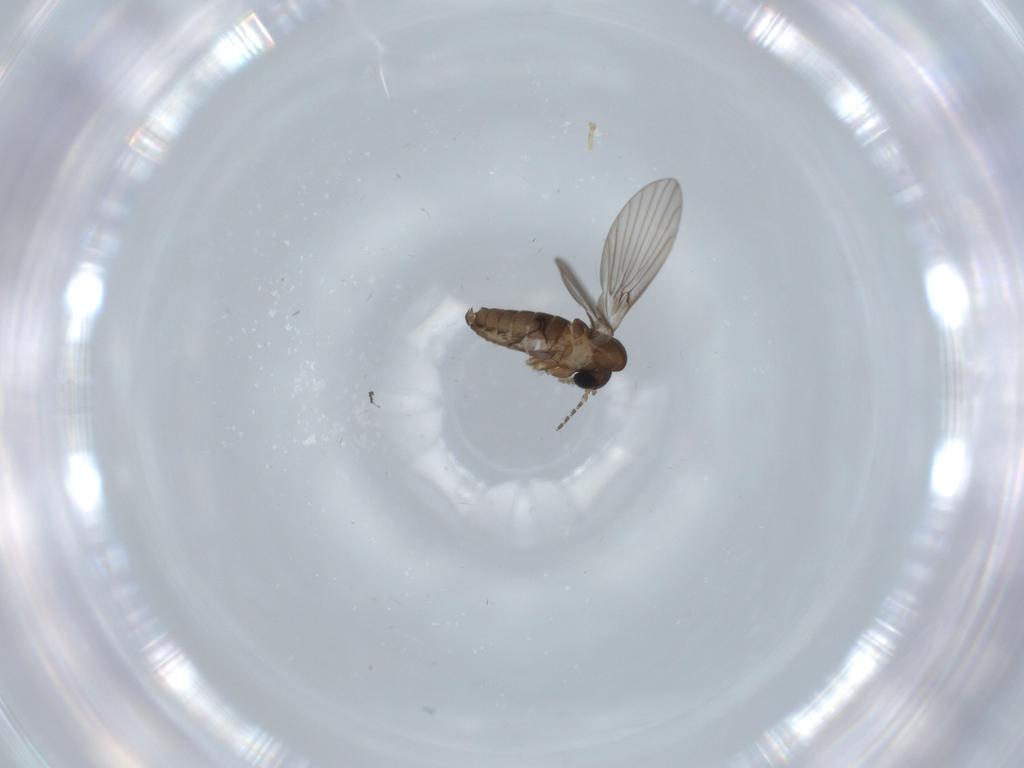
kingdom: Animalia
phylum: Arthropoda
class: Insecta
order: Diptera
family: Psychodidae
